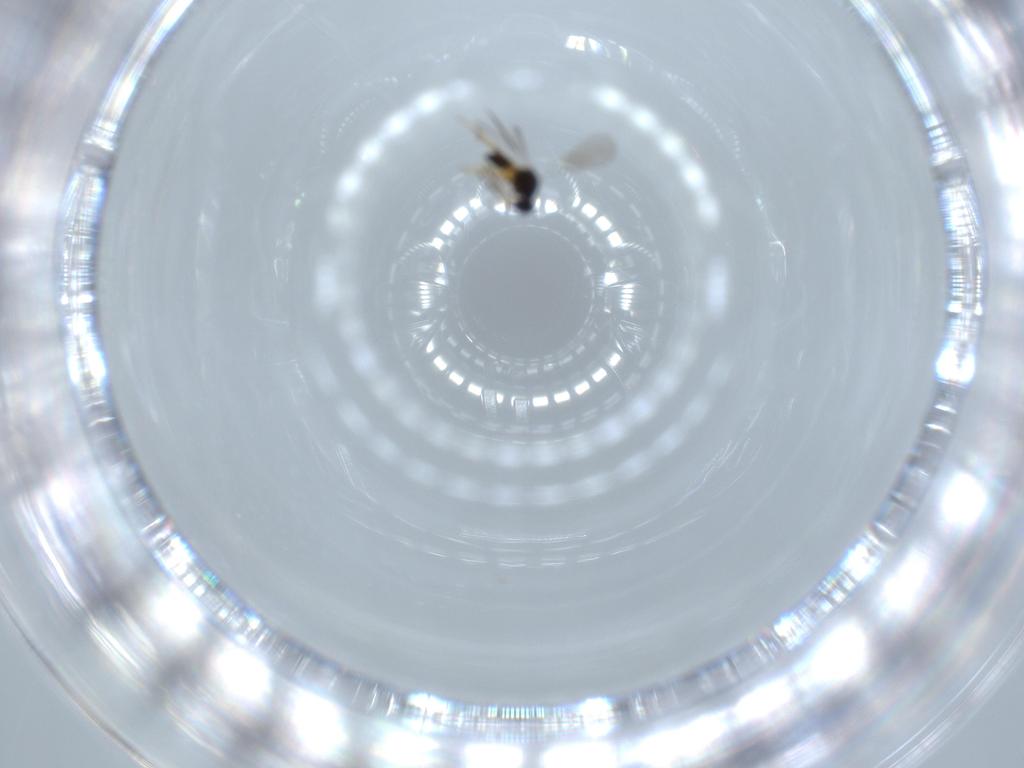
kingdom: Animalia
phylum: Arthropoda
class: Insecta
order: Hymenoptera
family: Platygastridae
